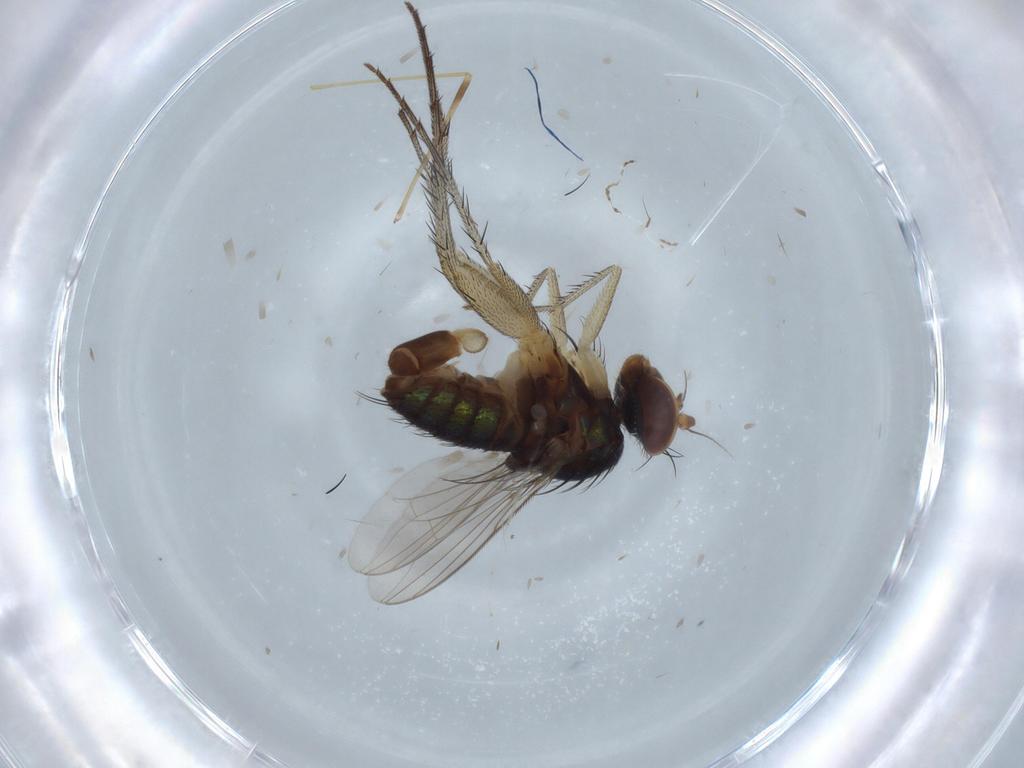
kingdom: Animalia
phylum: Arthropoda
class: Insecta
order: Diptera
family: Dolichopodidae
